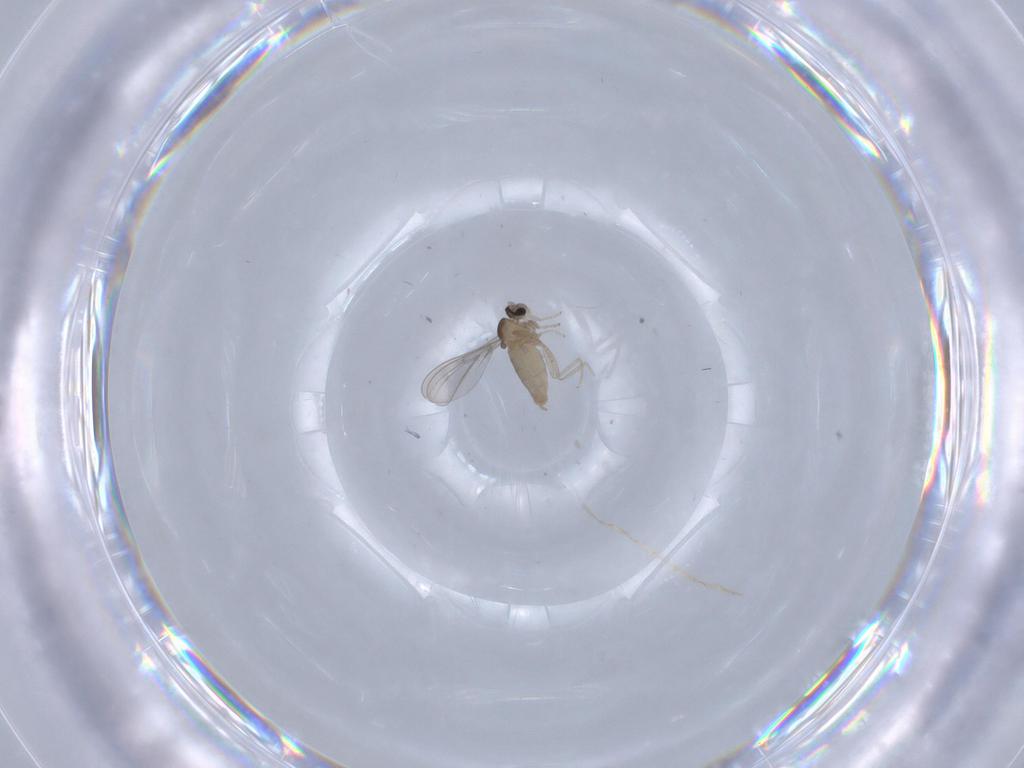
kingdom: Animalia
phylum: Arthropoda
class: Insecta
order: Diptera
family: Cecidomyiidae
